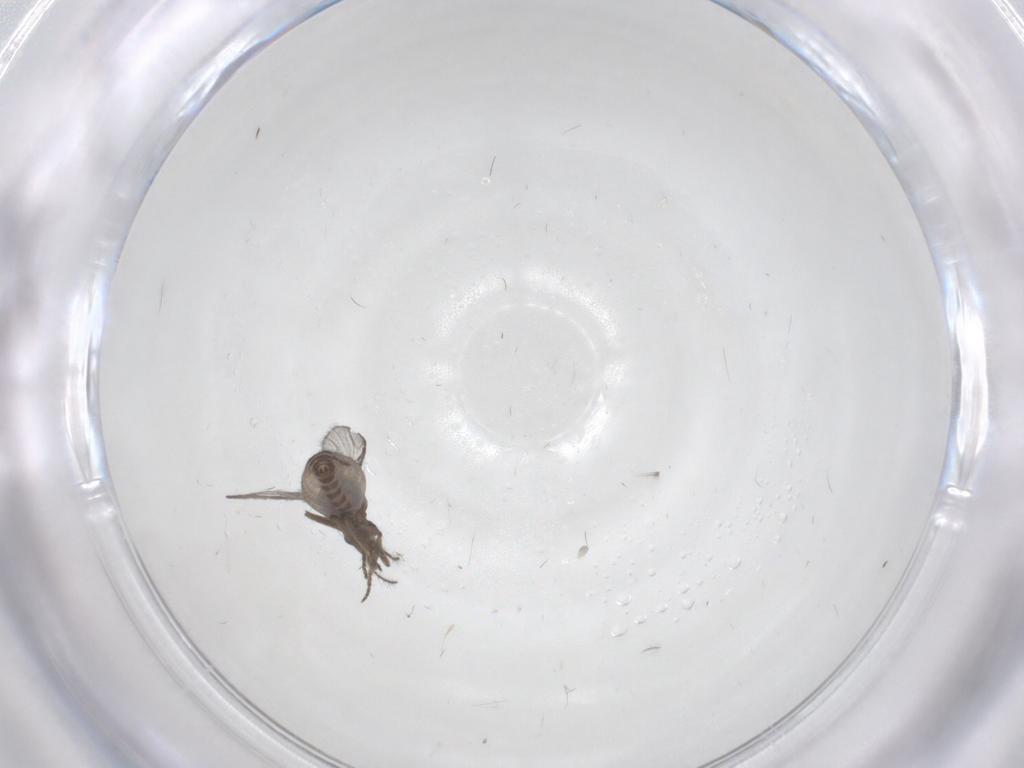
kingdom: Animalia
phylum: Arthropoda
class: Insecta
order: Diptera
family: Ceratopogonidae
